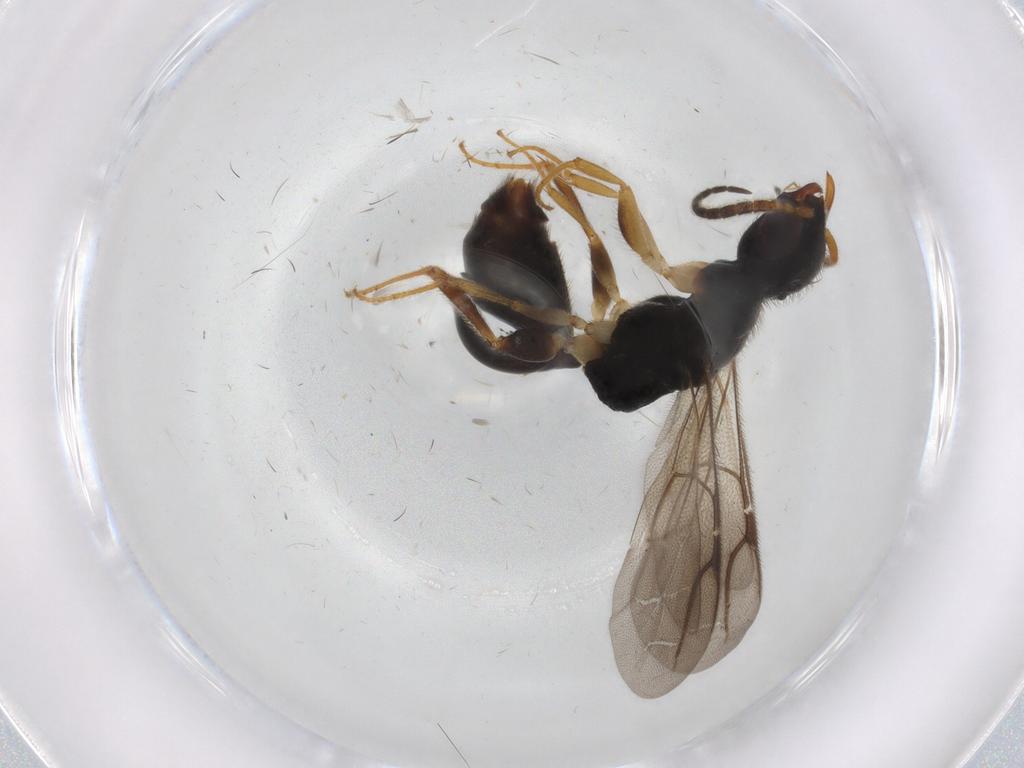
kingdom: Animalia
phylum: Arthropoda
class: Insecta
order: Hymenoptera
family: Bethylidae
